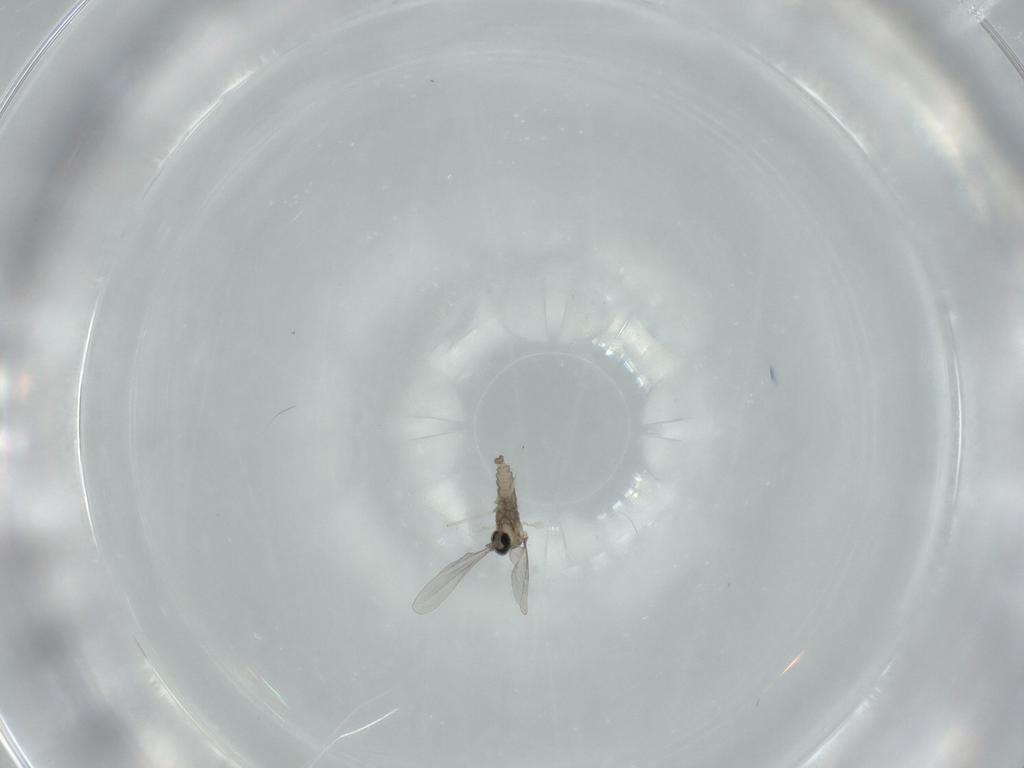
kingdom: Animalia
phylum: Arthropoda
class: Insecta
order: Diptera
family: Cecidomyiidae
